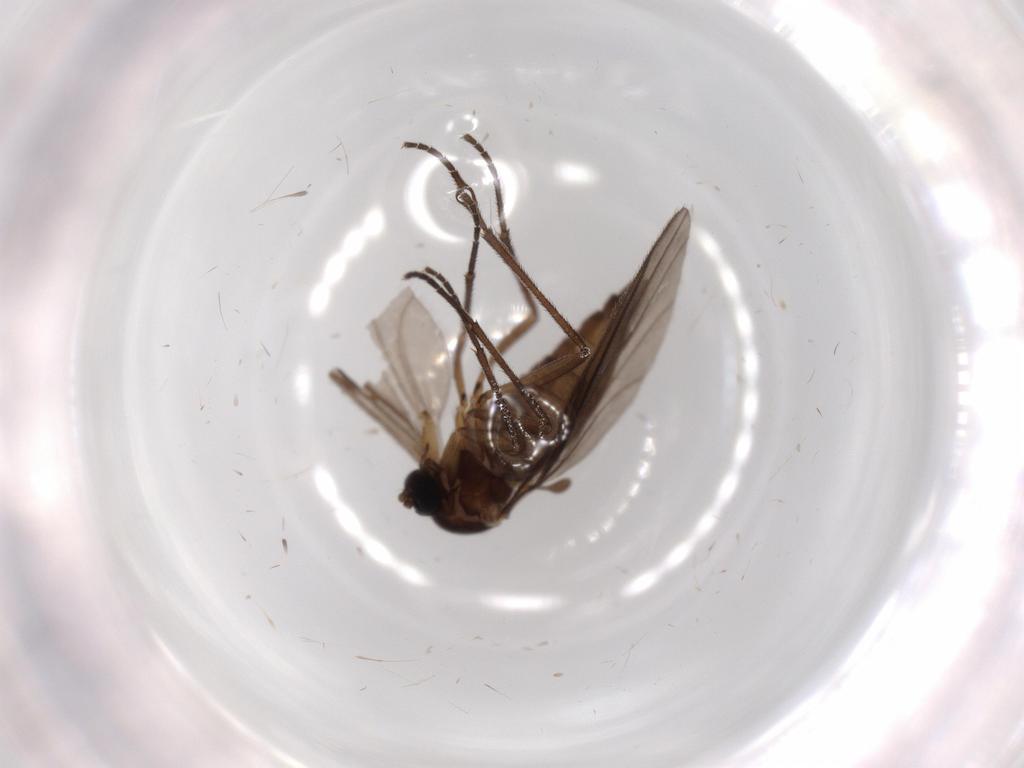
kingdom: Animalia
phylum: Arthropoda
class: Insecta
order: Diptera
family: Sciaridae
